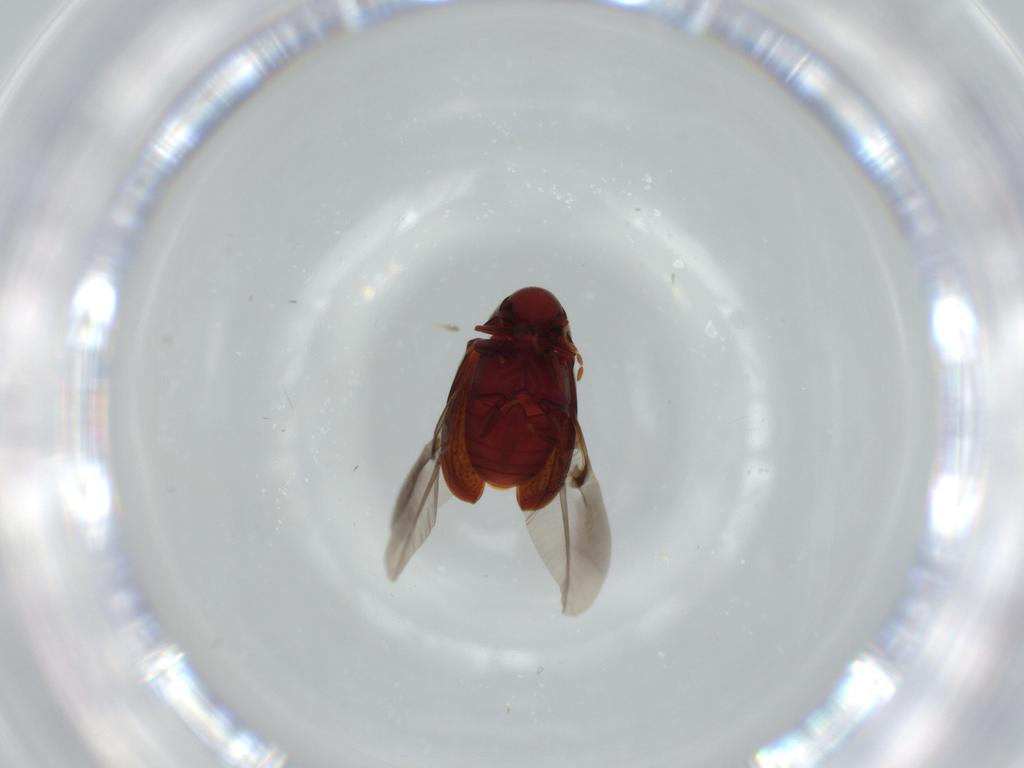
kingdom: Animalia
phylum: Arthropoda
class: Insecta
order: Coleoptera
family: Ptinidae
